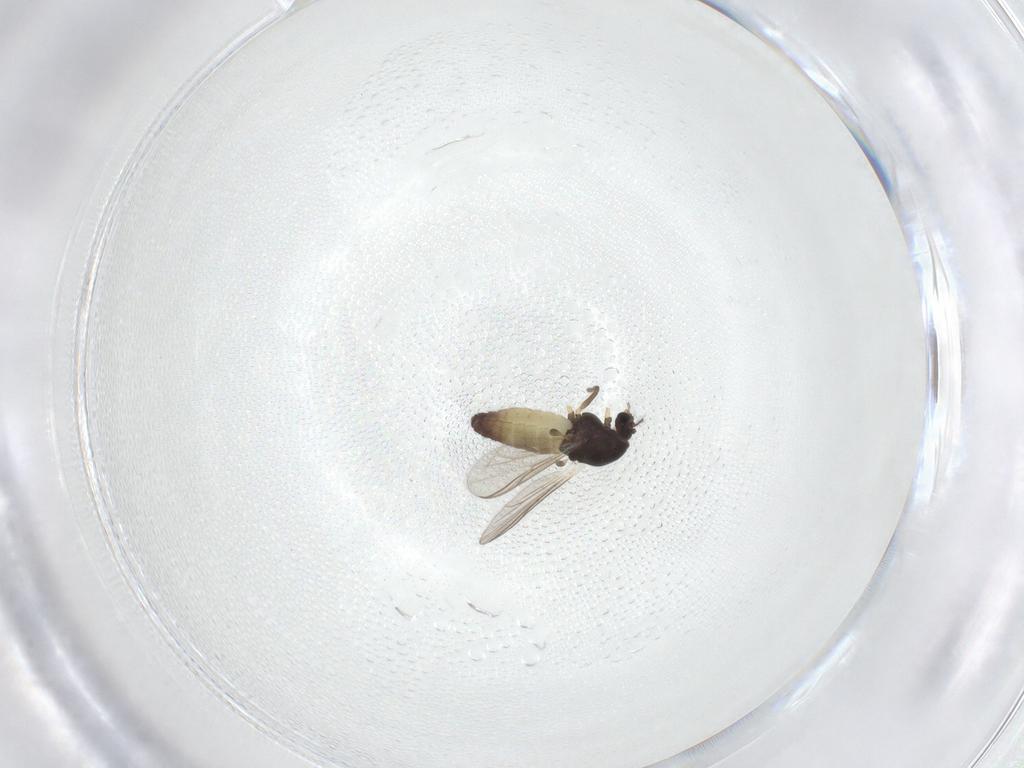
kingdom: Animalia
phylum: Arthropoda
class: Insecta
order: Diptera
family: Chironomidae
